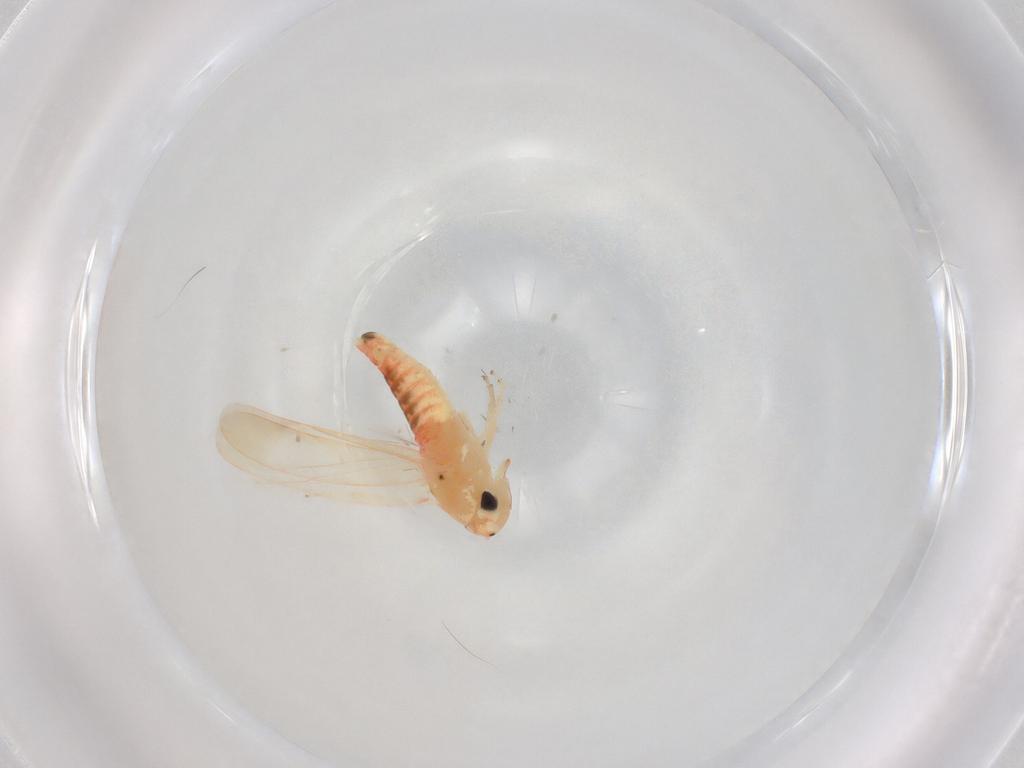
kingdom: Animalia
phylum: Arthropoda
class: Insecta
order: Hemiptera
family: Cicadellidae
